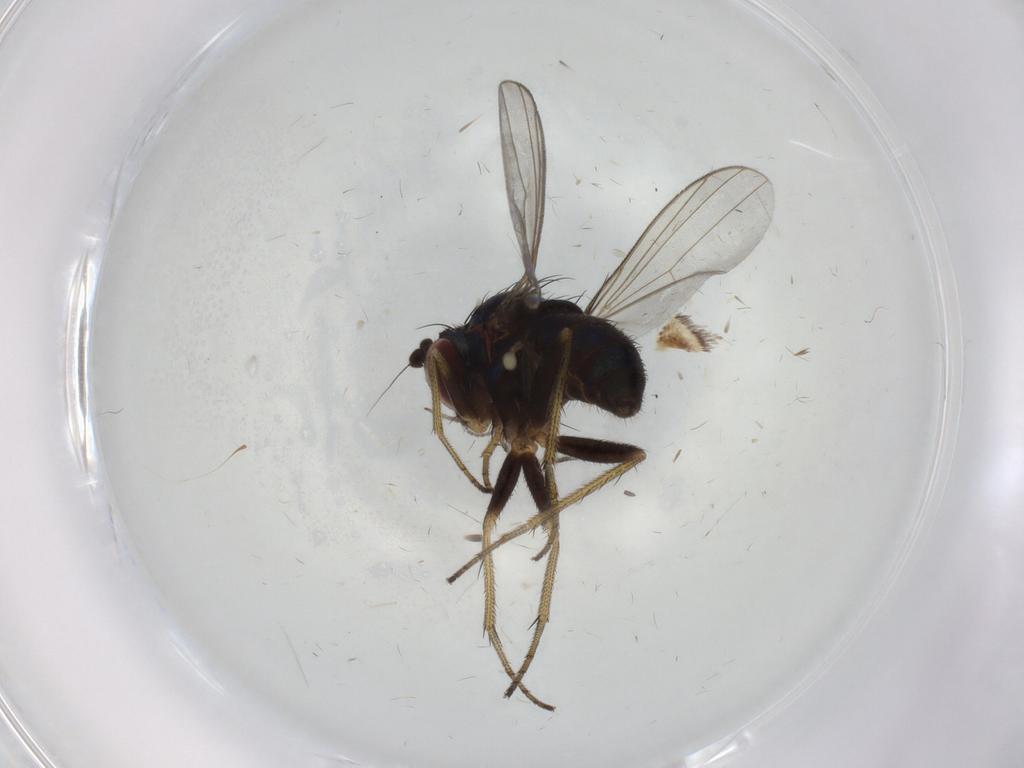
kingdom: Animalia
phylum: Arthropoda
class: Insecta
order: Diptera
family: Dolichopodidae
